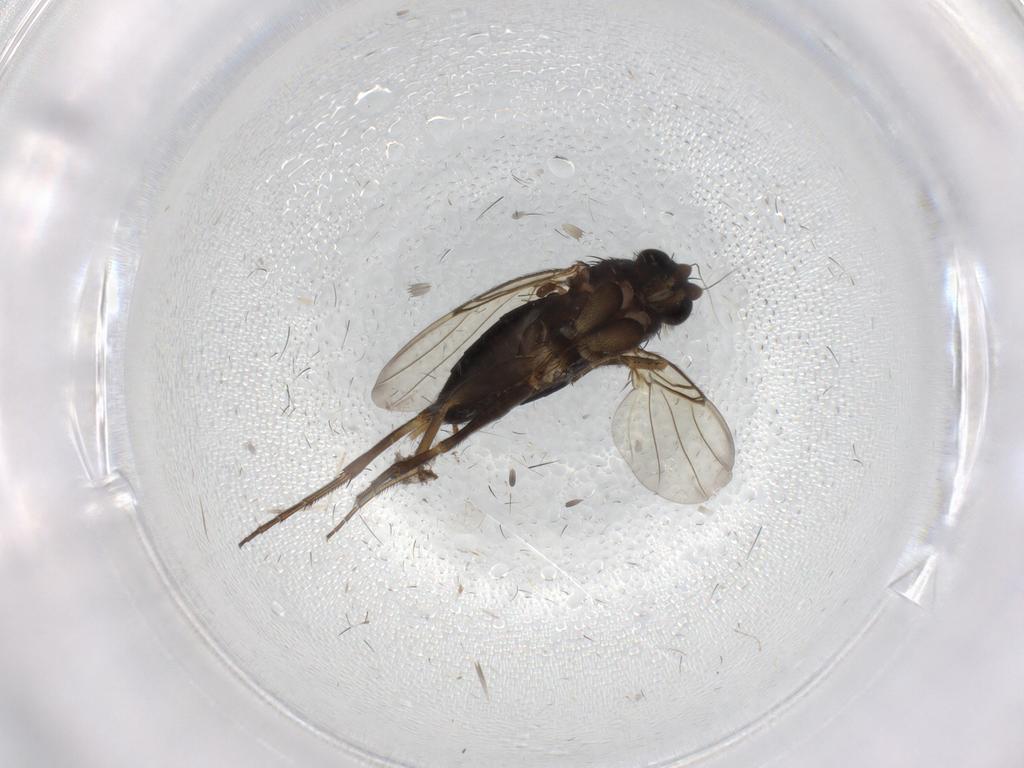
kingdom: Animalia
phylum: Arthropoda
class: Insecta
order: Diptera
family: Phoridae
